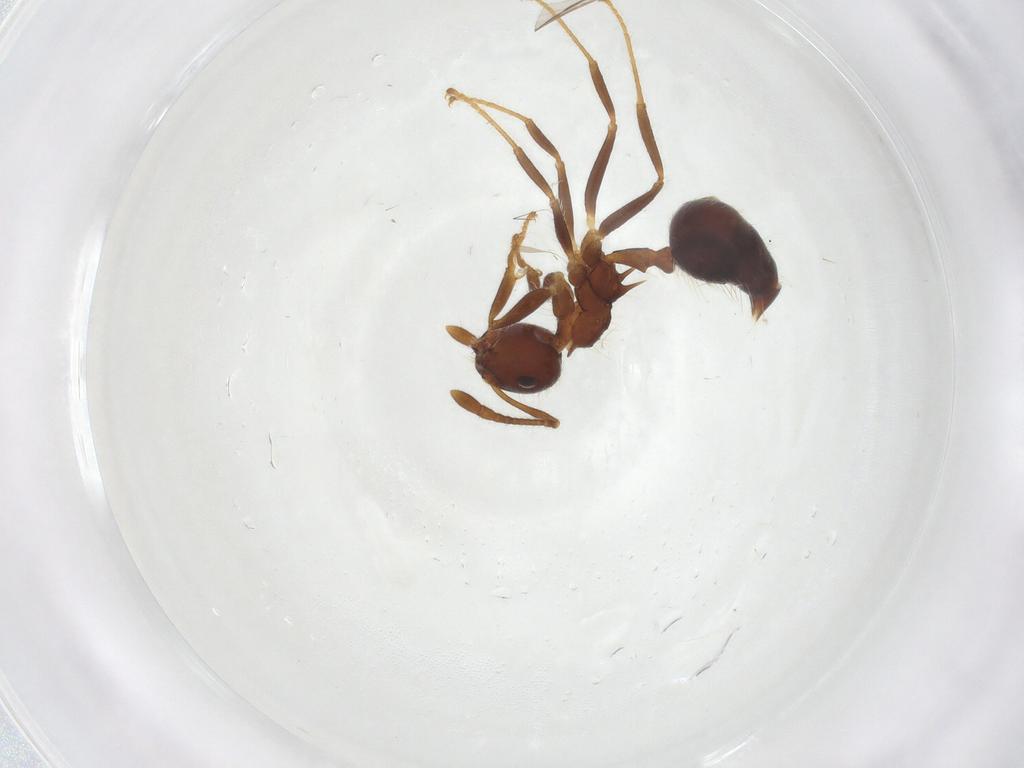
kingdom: Animalia
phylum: Arthropoda
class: Insecta
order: Hymenoptera
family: Formicidae
